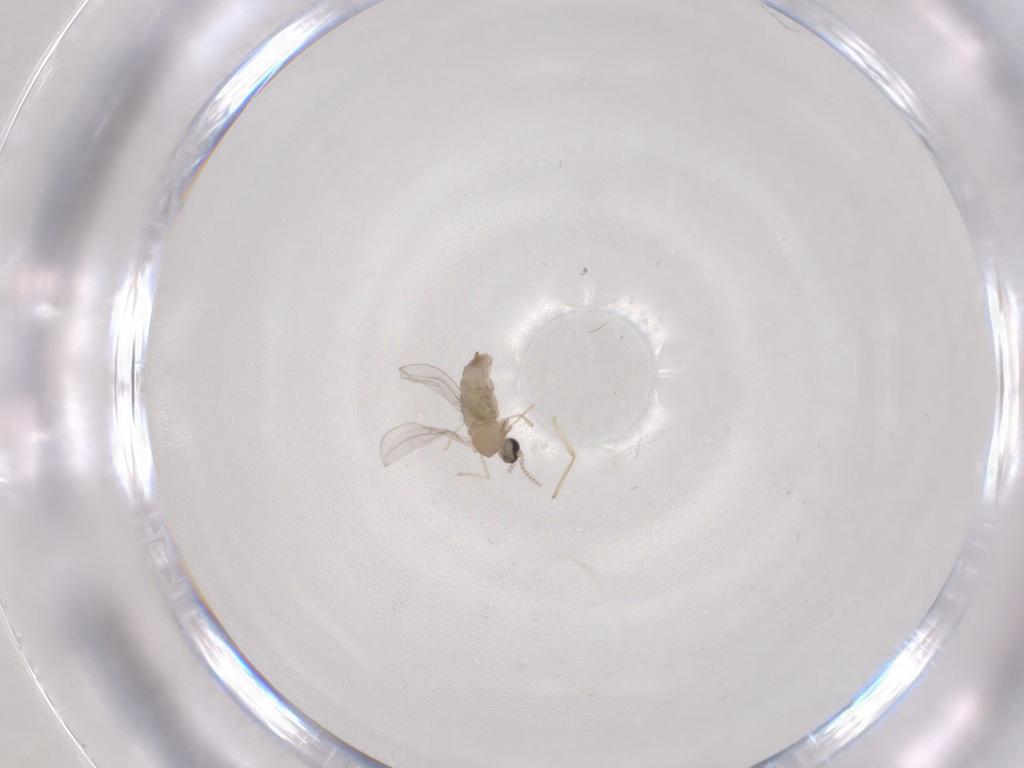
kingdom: Animalia
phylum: Arthropoda
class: Insecta
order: Diptera
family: Cecidomyiidae
